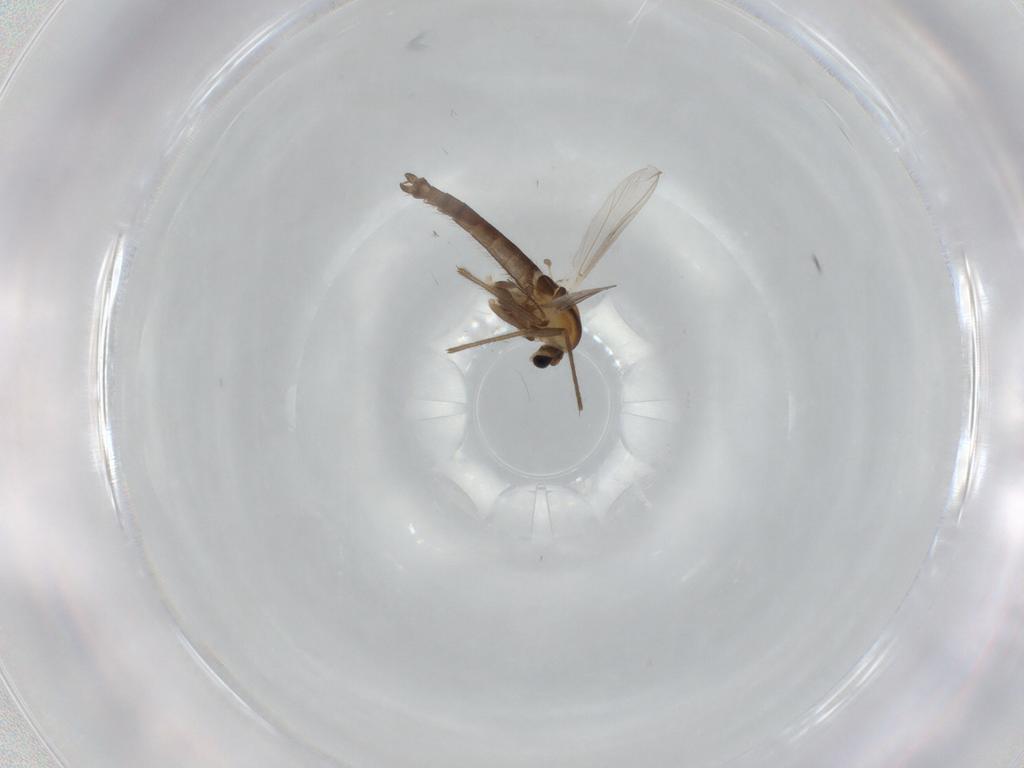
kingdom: Animalia
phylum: Arthropoda
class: Insecta
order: Diptera
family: Chironomidae
